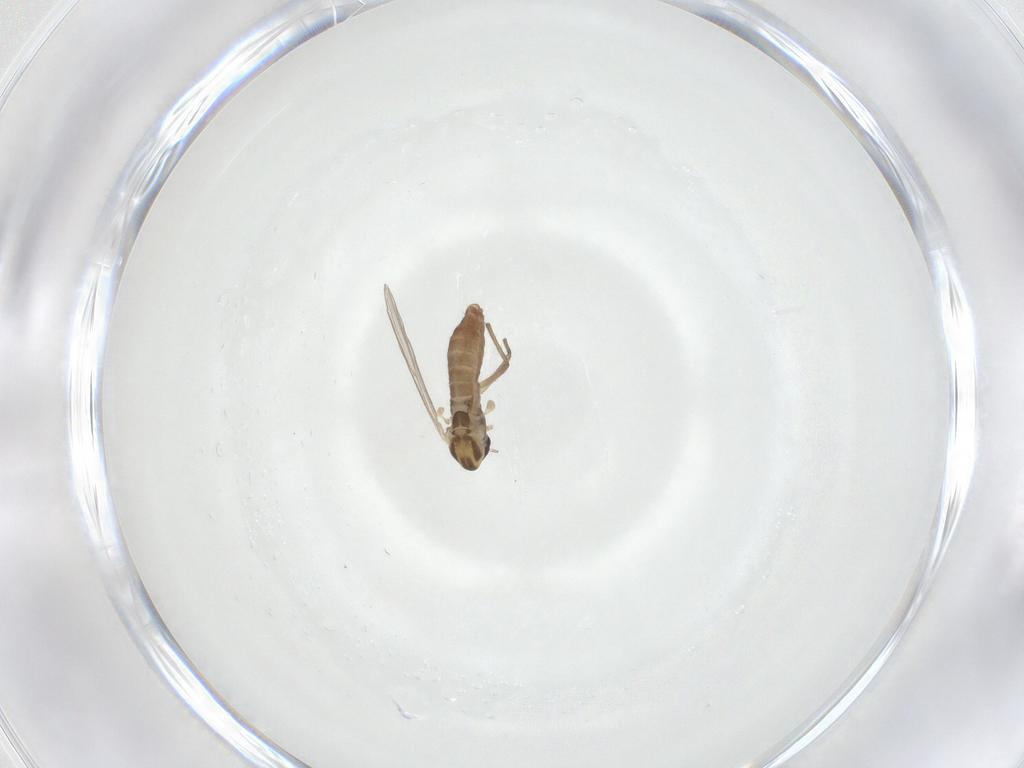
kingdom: Animalia
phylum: Arthropoda
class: Insecta
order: Diptera
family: Chironomidae
